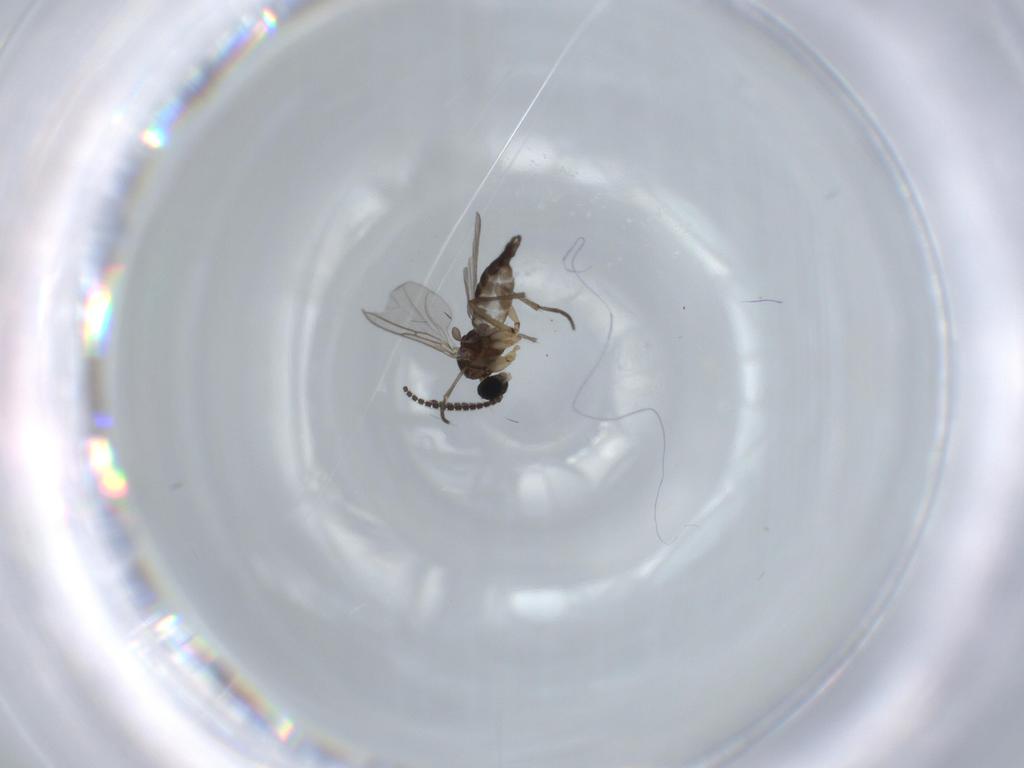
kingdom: Animalia
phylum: Arthropoda
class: Insecta
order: Diptera
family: Sciaridae
